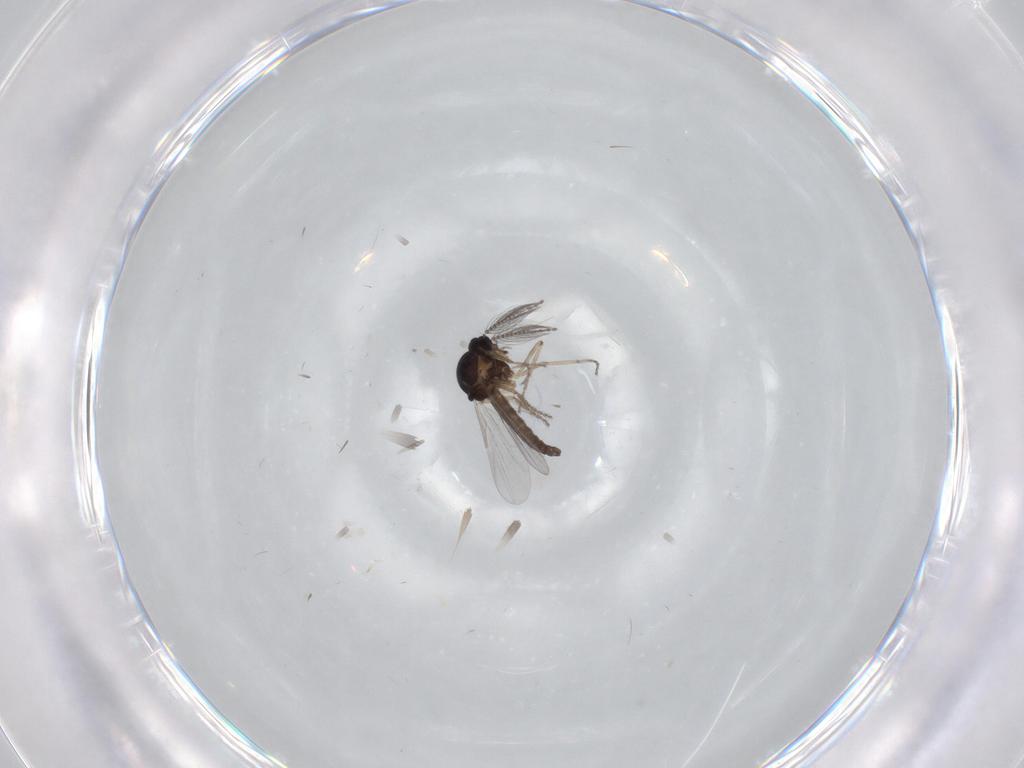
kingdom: Animalia
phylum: Arthropoda
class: Insecta
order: Diptera
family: Ceratopogonidae
